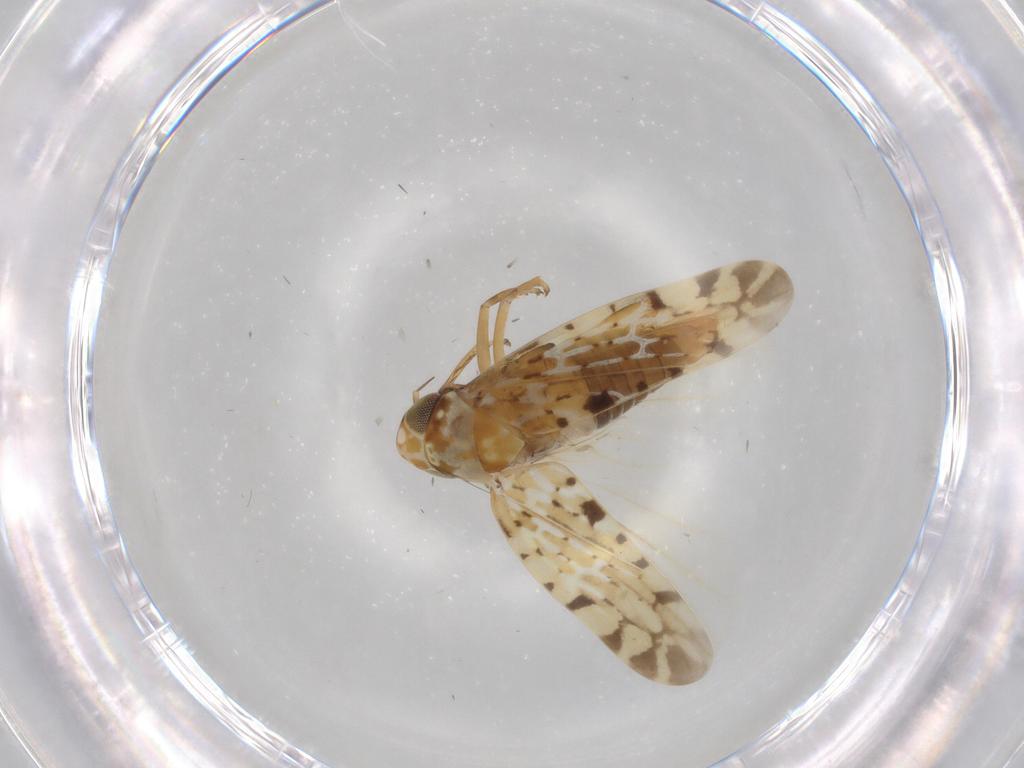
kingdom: Animalia
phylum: Arthropoda
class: Insecta
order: Hemiptera
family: Cicadellidae
